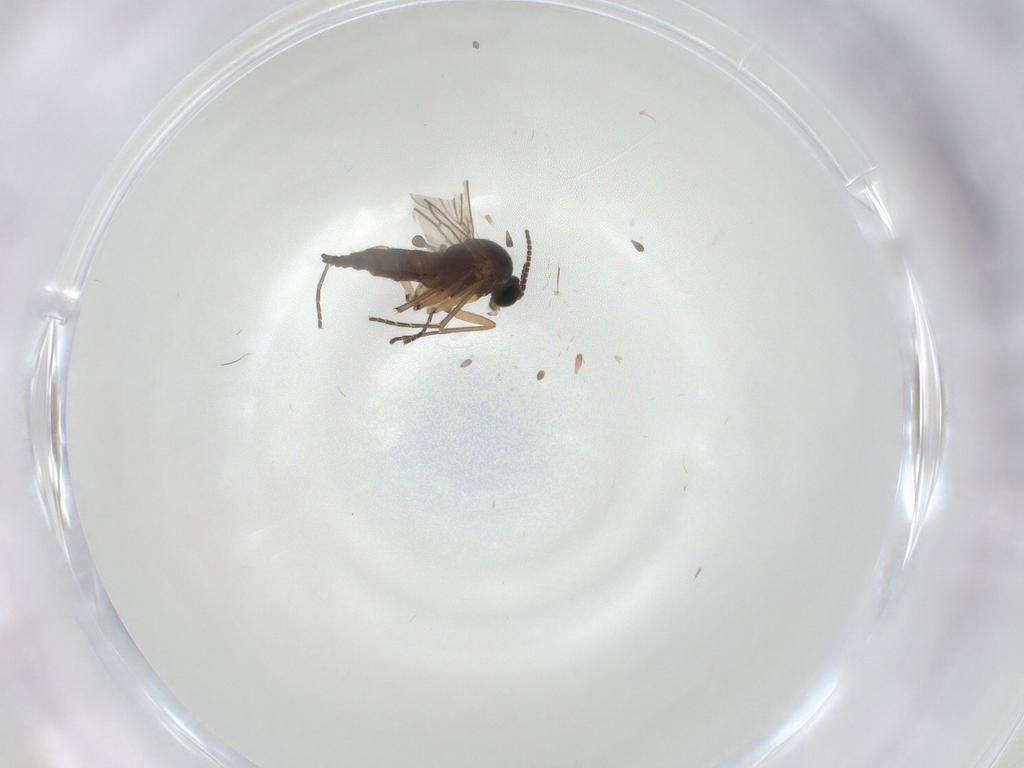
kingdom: Animalia
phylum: Arthropoda
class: Insecta
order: Diptera
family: Sciaridae
